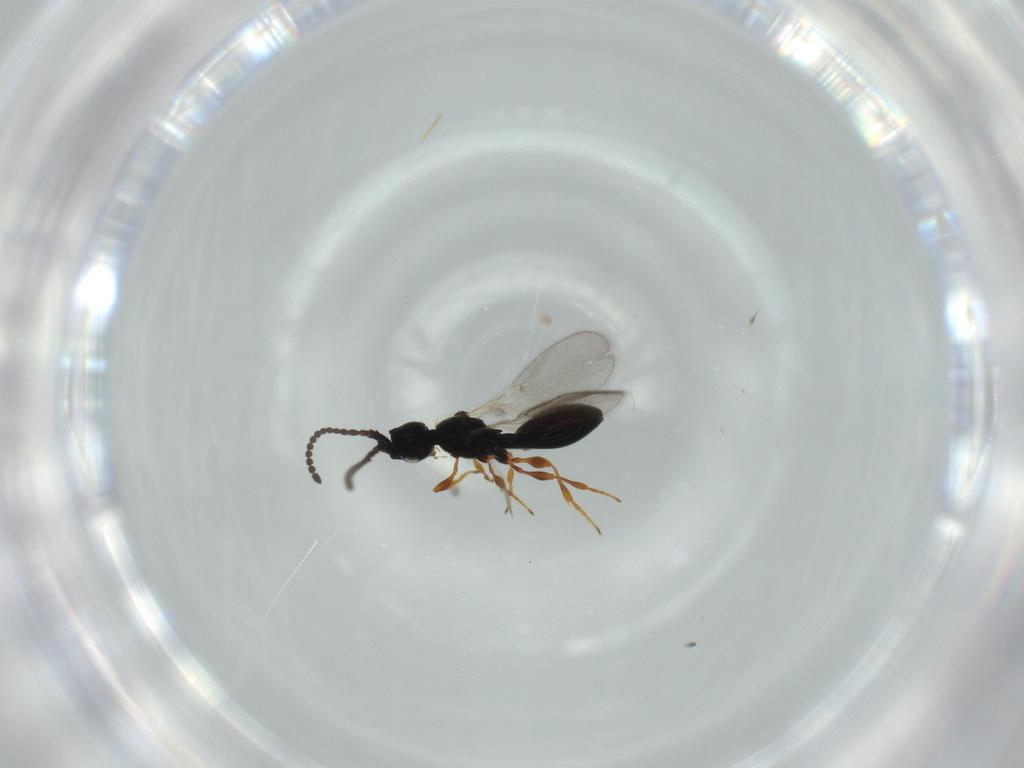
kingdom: Animalia
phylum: Arthropoda
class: Insecta
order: Hymenoptera
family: Diapriidae
